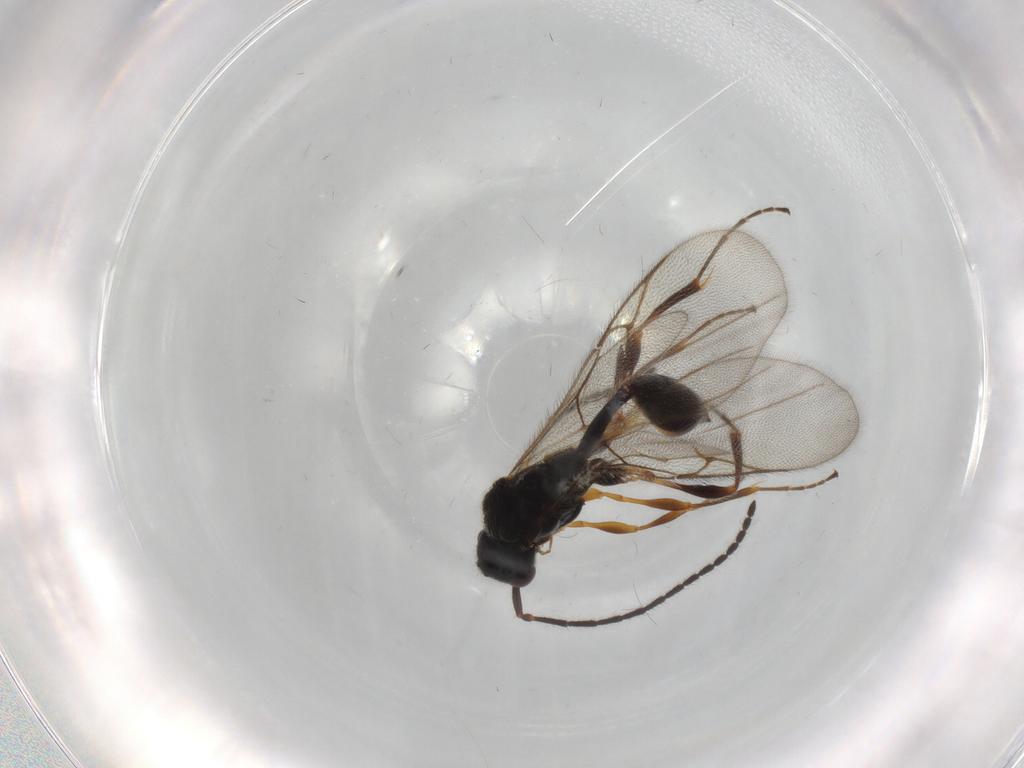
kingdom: Animalia
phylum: Arthropoda
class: Insecta
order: Hymenoptera
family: Diapriidae
